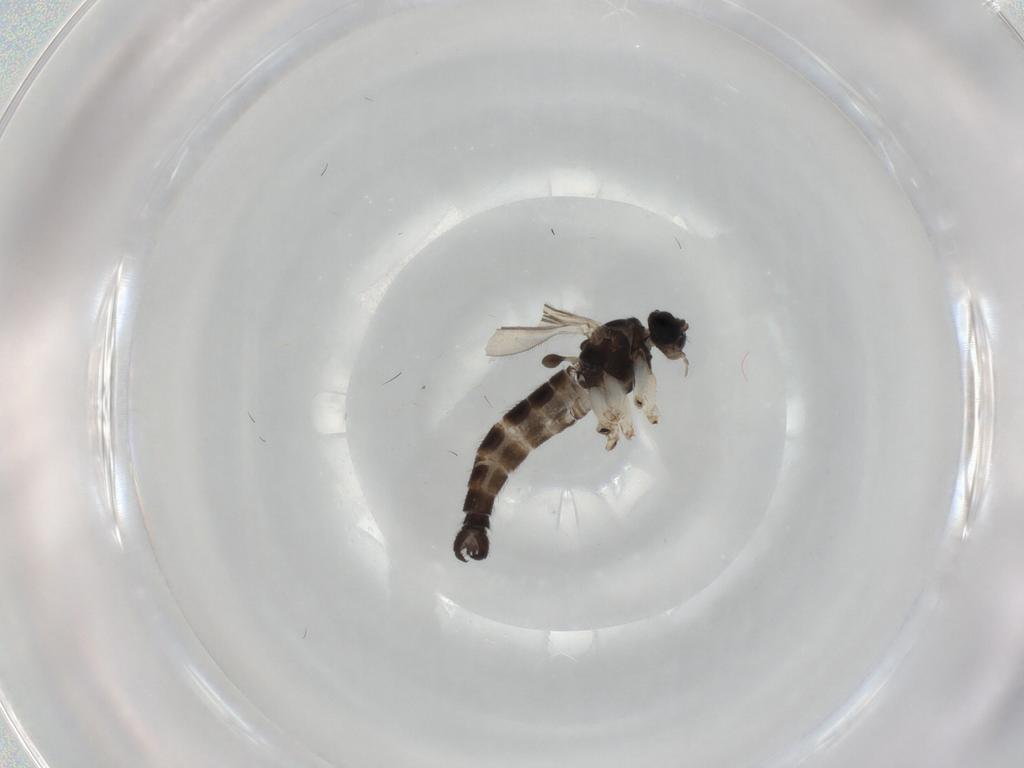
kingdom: Animalia
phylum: Arthropoda
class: Insecta
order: Diptera
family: Sciaridae
